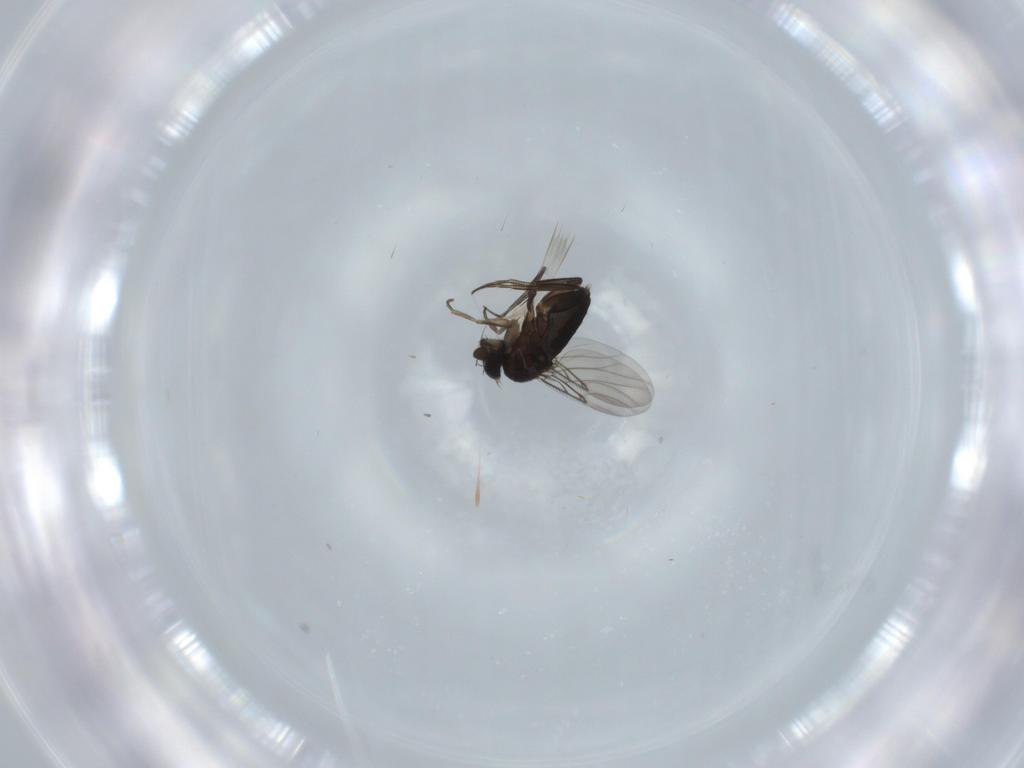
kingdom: Animalia
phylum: Arthropoda
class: Insecta
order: Diptera
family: Phoridae
